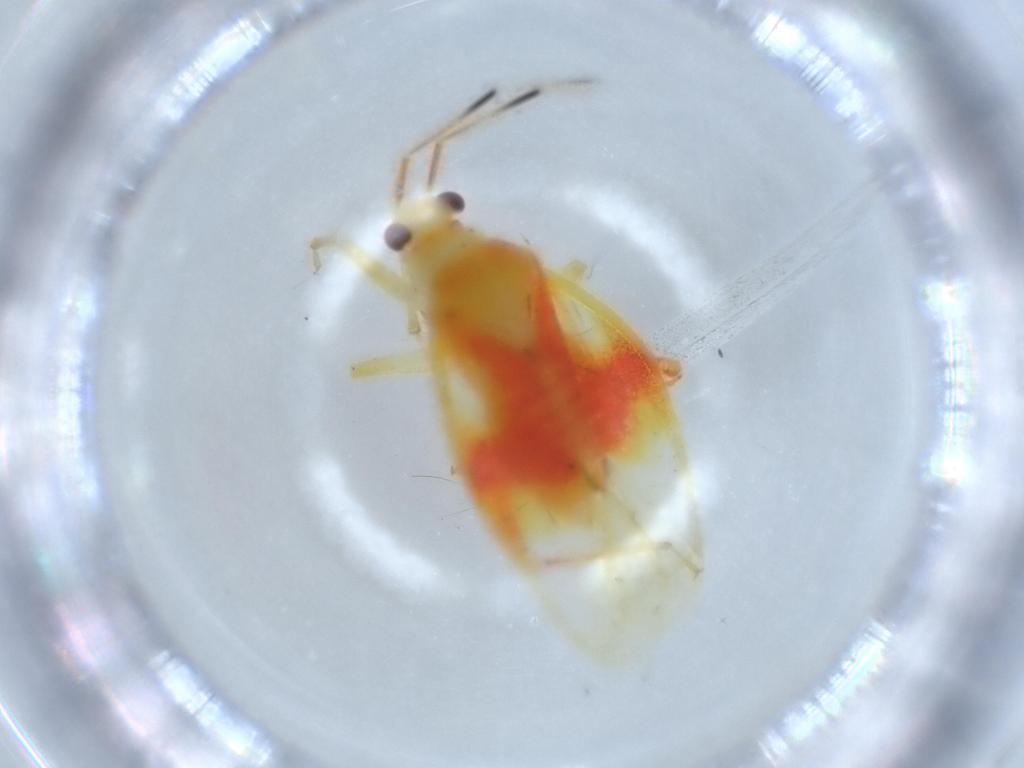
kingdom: Animalia
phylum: Arthropoda
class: Insecta
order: Hemiptera
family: Miridae
